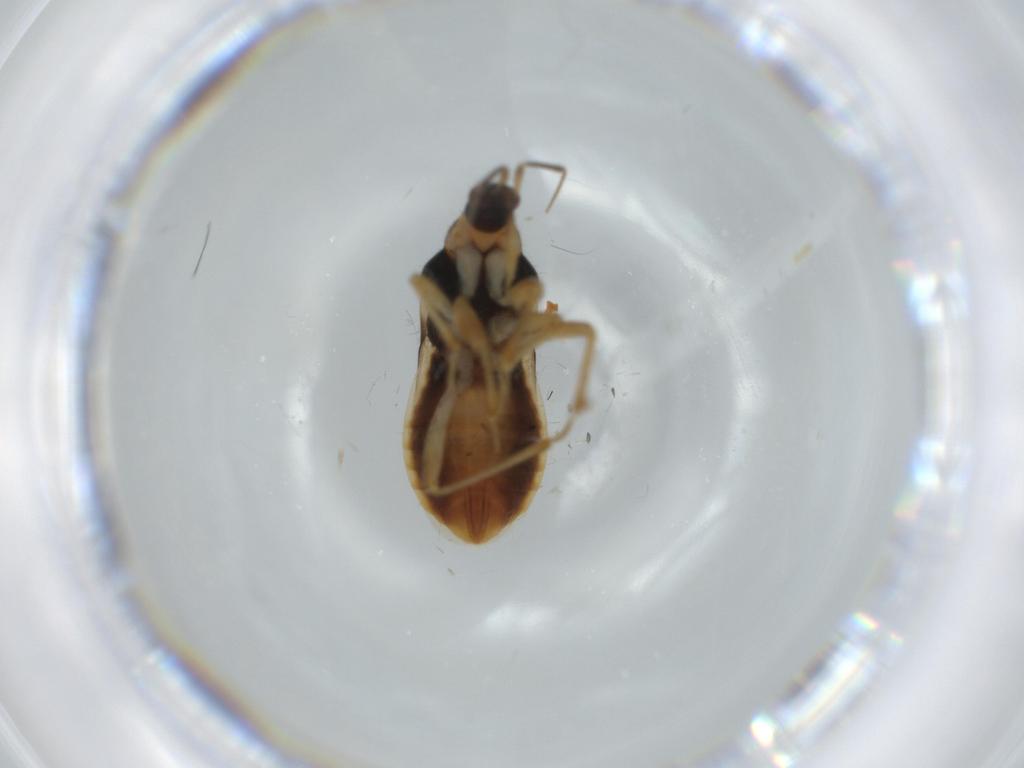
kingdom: Animalia
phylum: Arthropoda
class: Insecta
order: Hemiptera
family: Nabidae
